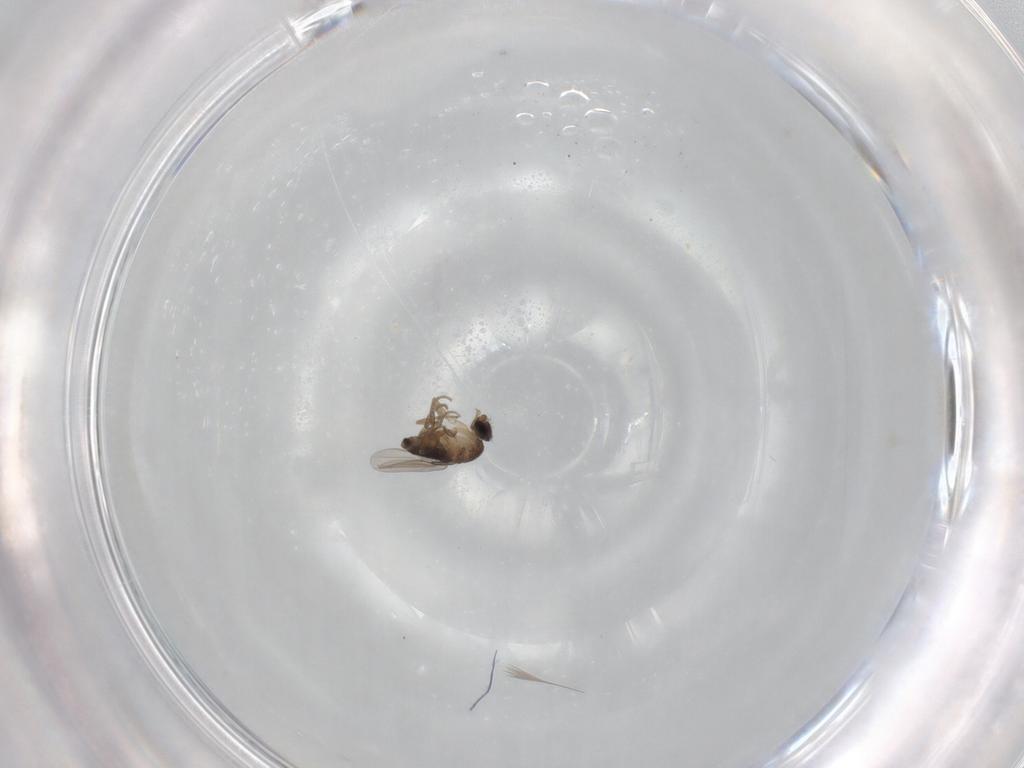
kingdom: Animalia
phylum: Arthropoda
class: Insecta
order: Diptera
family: Phoridae
